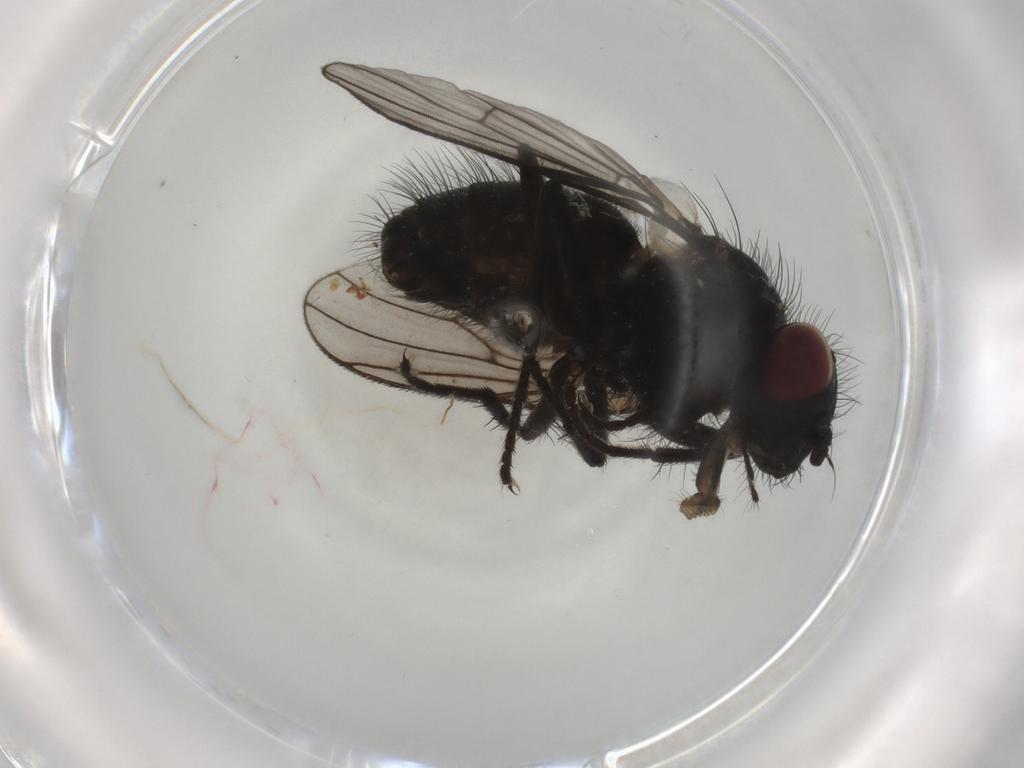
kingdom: Animalia
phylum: Arthropoda
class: Insecta
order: Diptera
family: Muscidae
